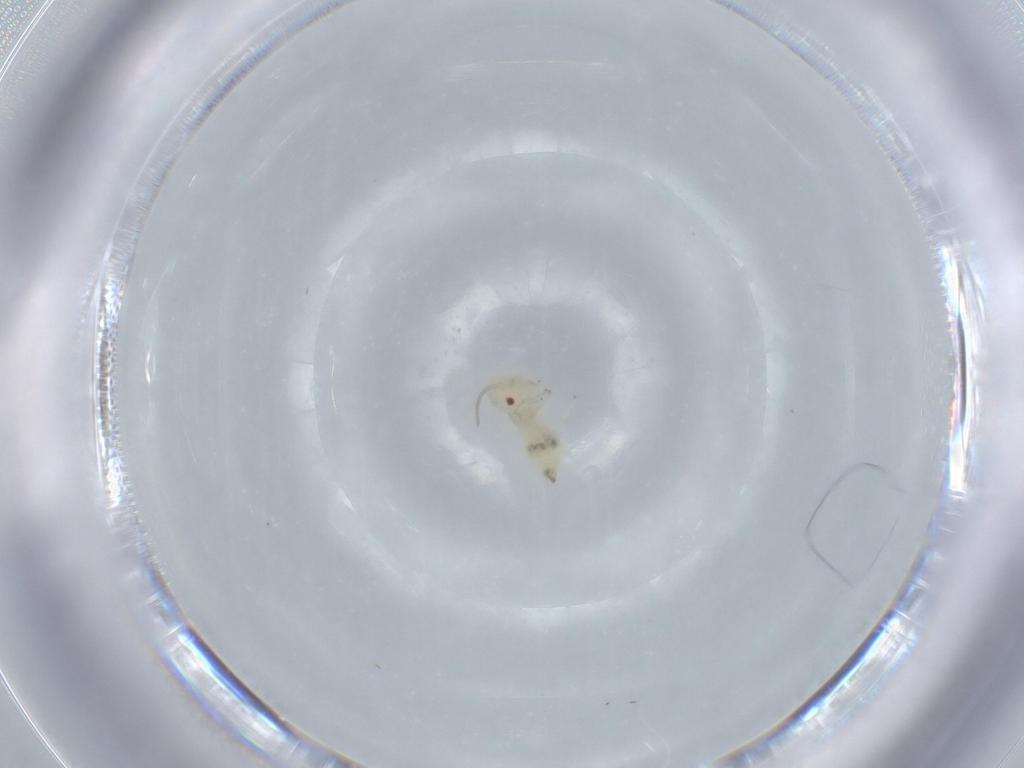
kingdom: Animalia
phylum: Arthropoda
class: Insecta
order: Psocodea
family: Caeciliusidae
